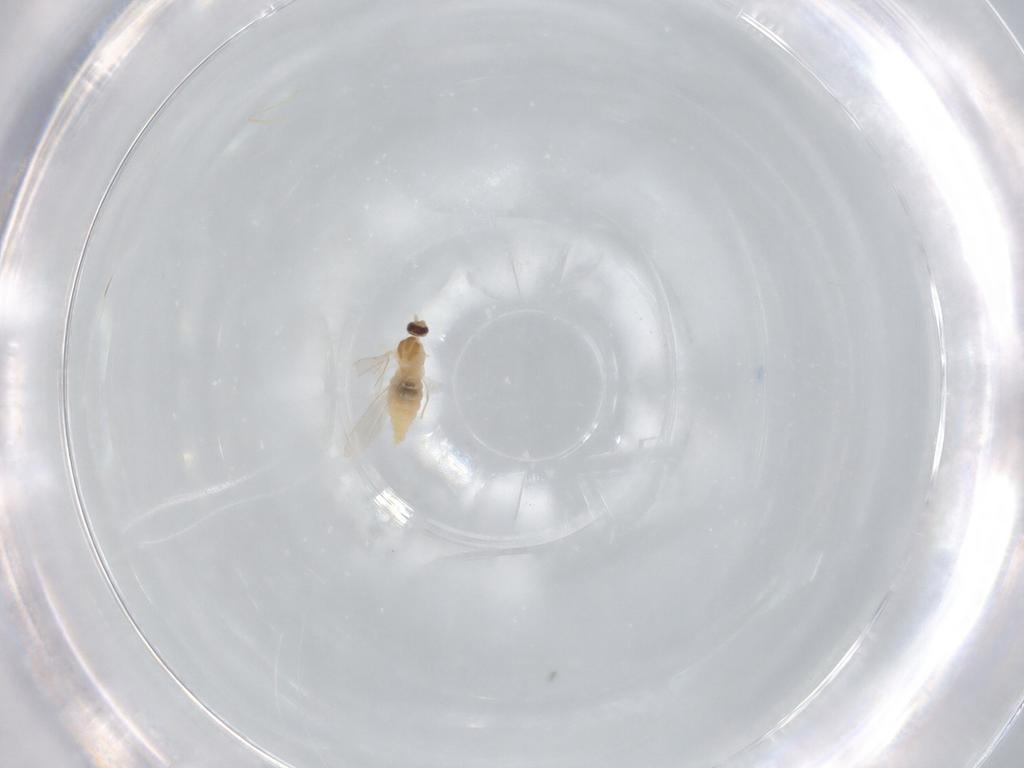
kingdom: Animalia
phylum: Arthropoda
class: Insecta
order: Diptera
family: Cecidomyiidae
